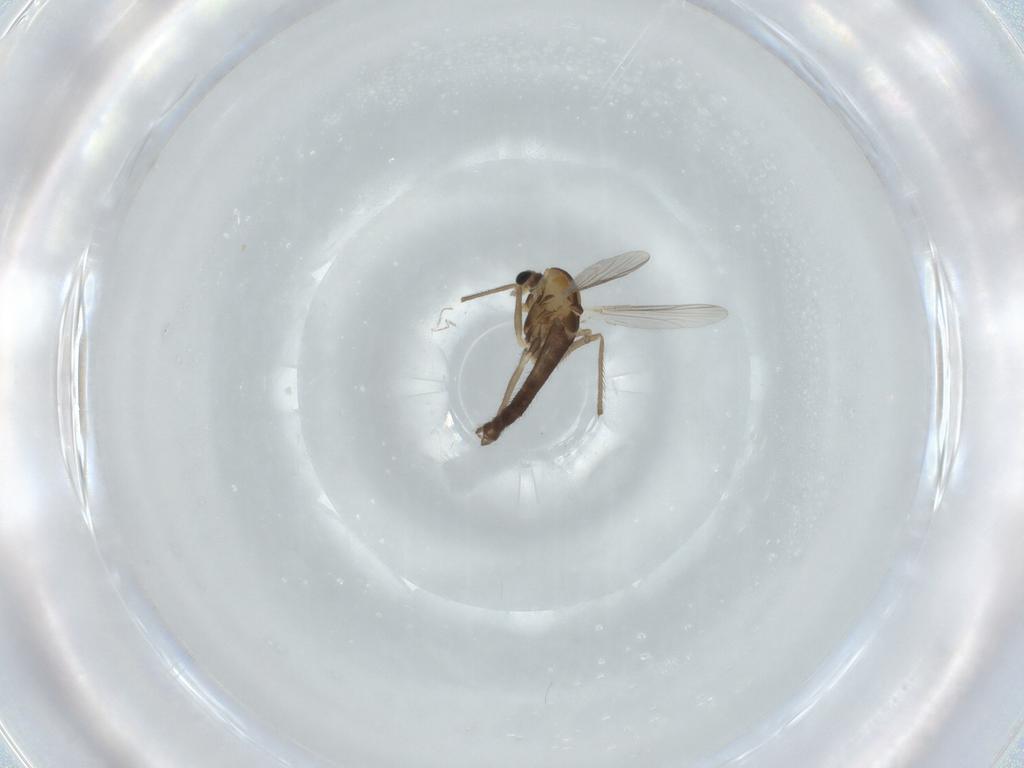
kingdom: Animalia
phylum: Arthropoda
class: Insecta
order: Diptera
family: Chironomidae
